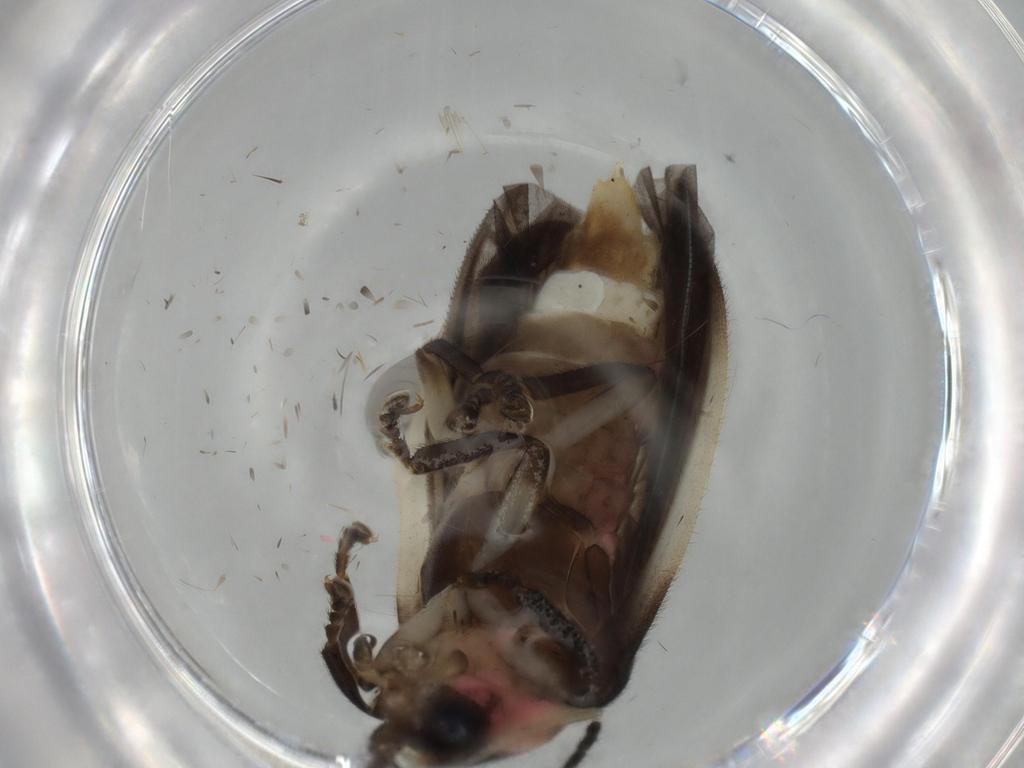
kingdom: Animalia
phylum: Arthropoda
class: Insecta
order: Coleoptera
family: Lampyridae
